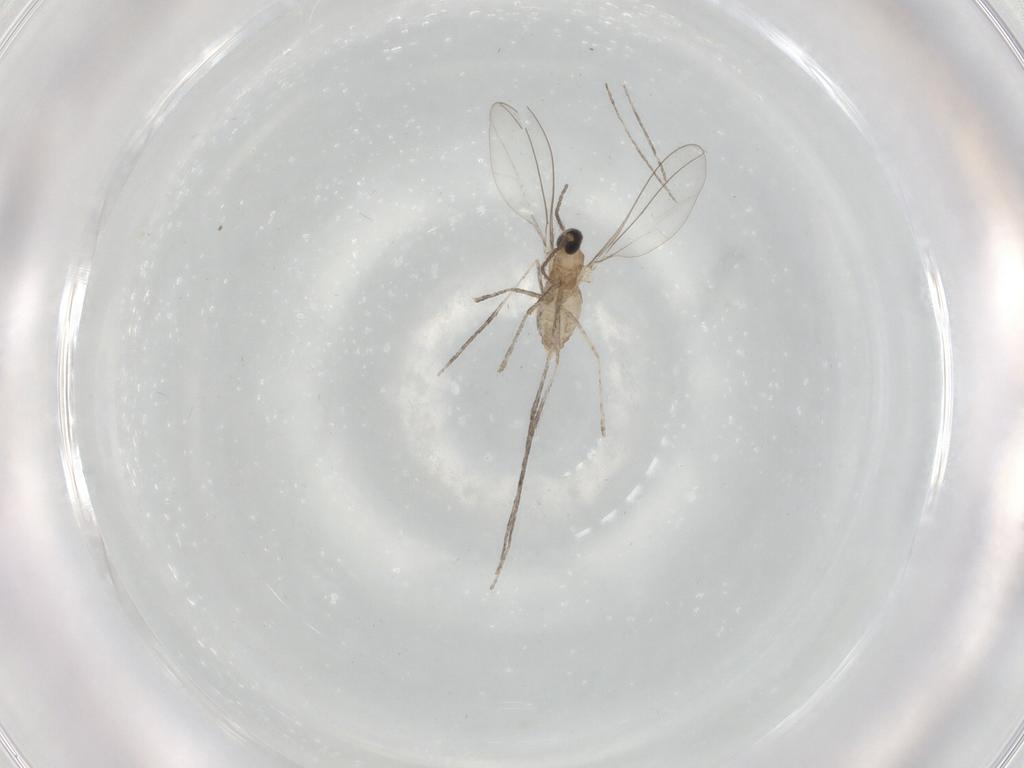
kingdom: Animalia
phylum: Arthropoda
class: Insecta
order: Diptera
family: Cecidomyiidae
